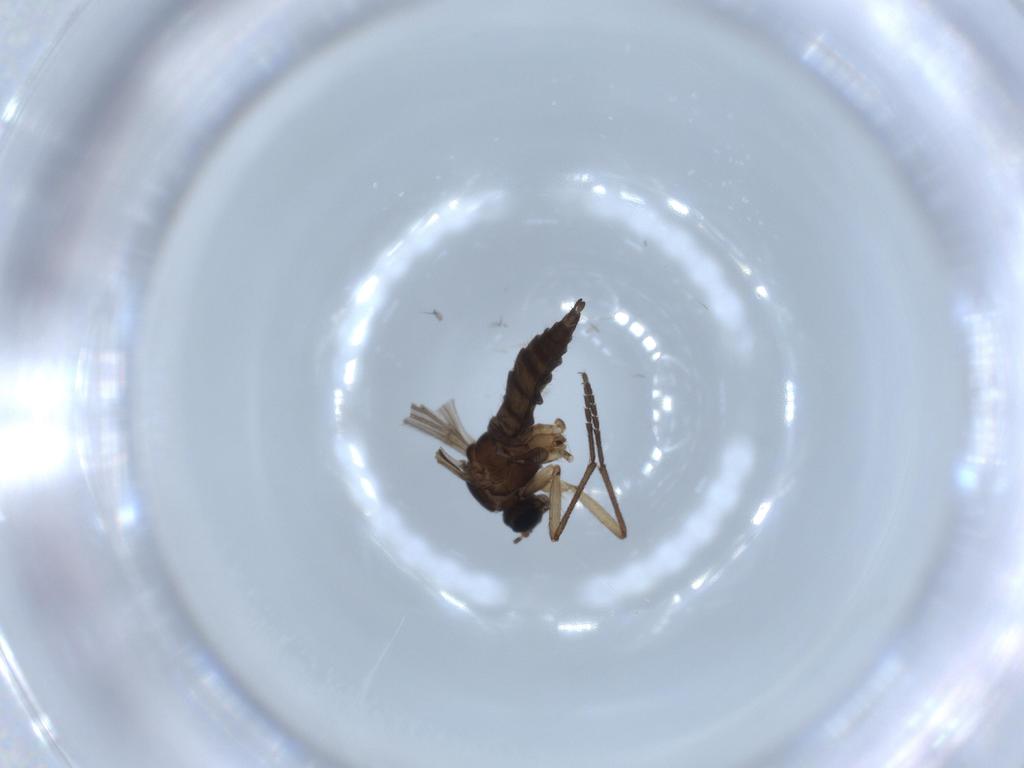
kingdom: Animalia
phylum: Arthropoda
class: Insecta
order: Diptera
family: Sciaridae
